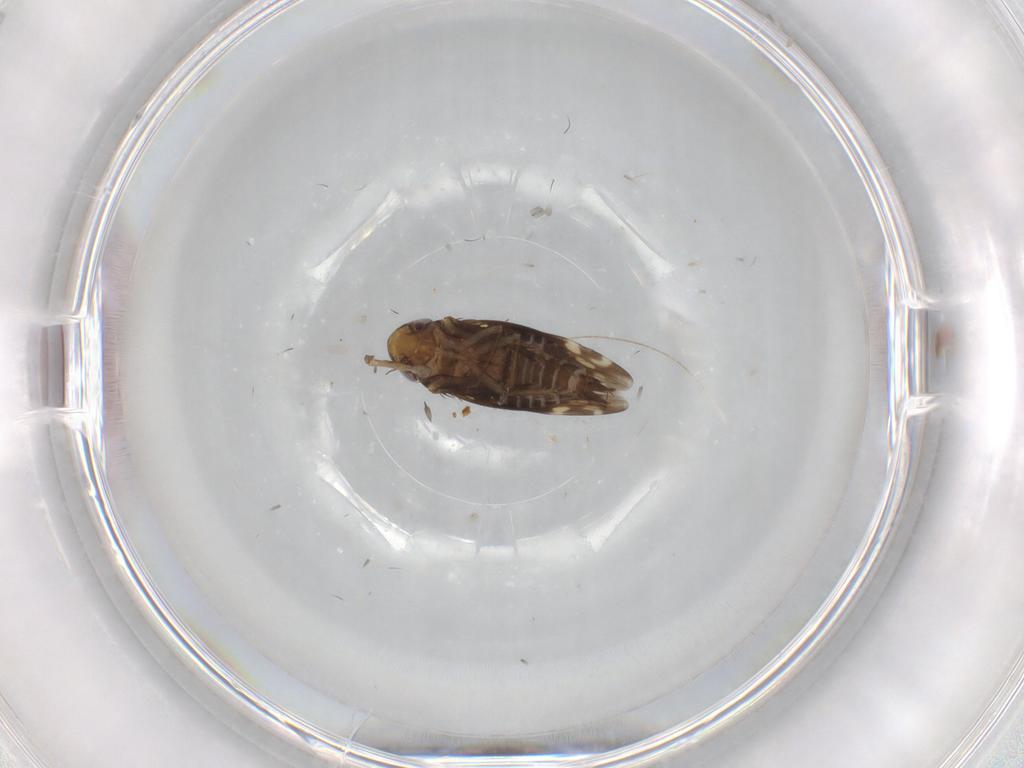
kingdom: Animalia
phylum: Arthropoda
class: Insecta
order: Hemiptera
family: Cicadellidae
